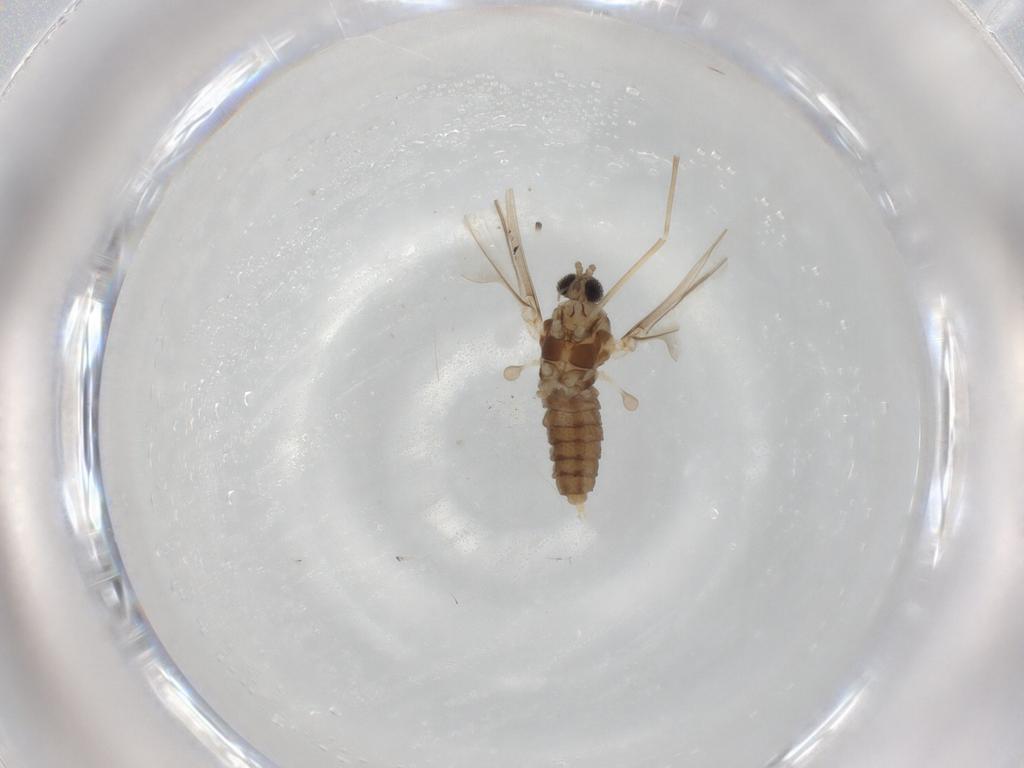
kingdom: Animalia
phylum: Arthropoda
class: Insecta
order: Diptera
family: Cecidomyiidae
